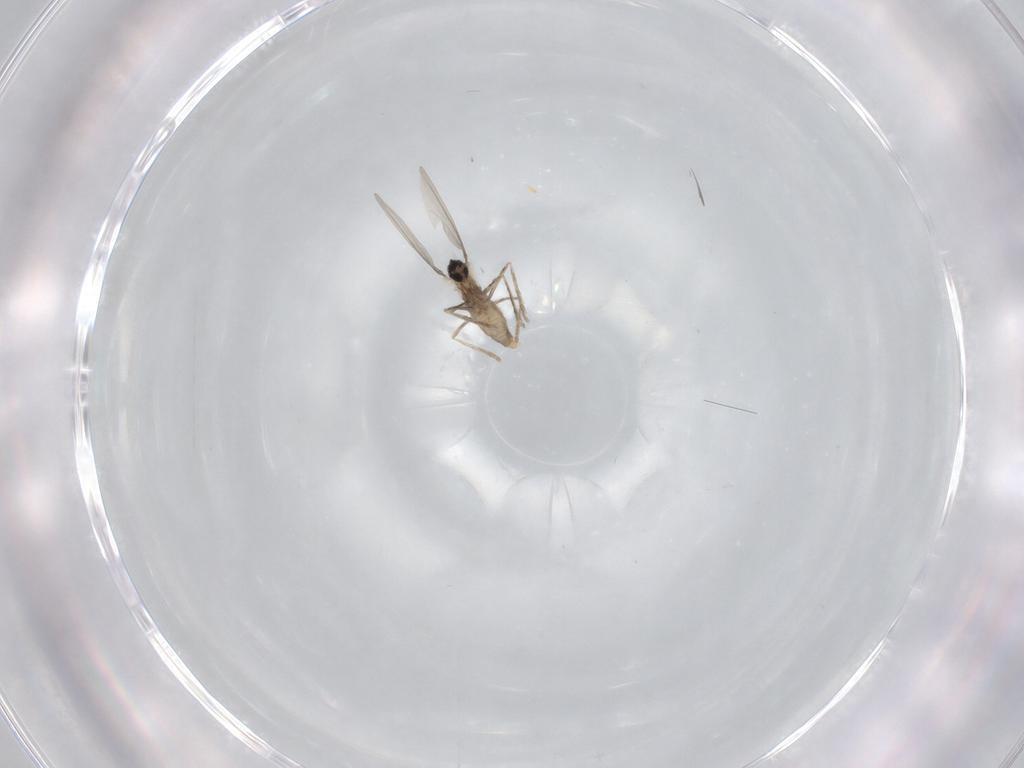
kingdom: Animalia
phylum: Arthropoda
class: Insecta
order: Diptera
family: Cecidomyiidae
